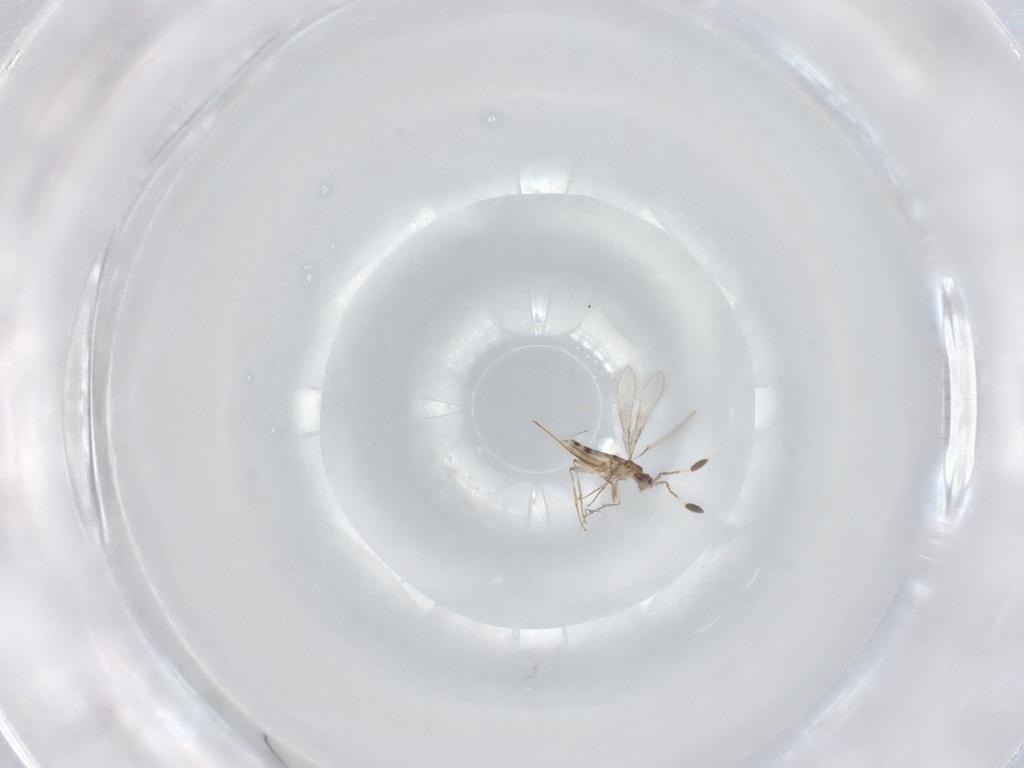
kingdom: Animalia
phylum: Arthropoda
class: Insecta
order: Hymenoptera
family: Mymaridae
